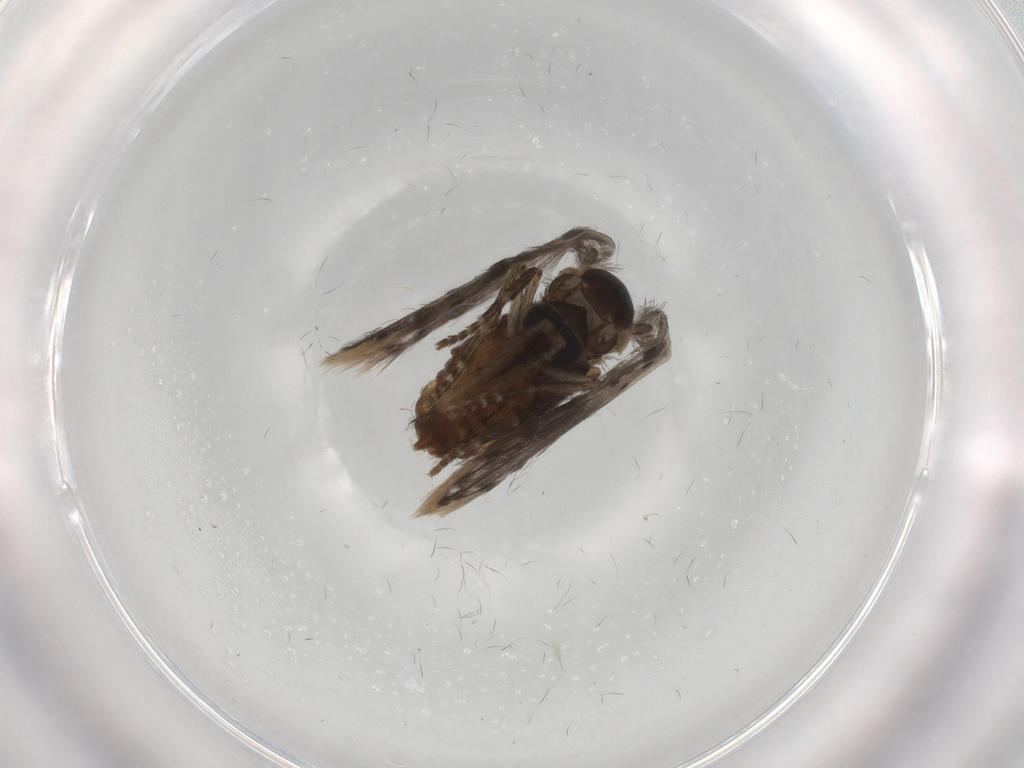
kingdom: Animalia
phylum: Arthropoda
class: Insecta
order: Diptera
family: Psychodidae
